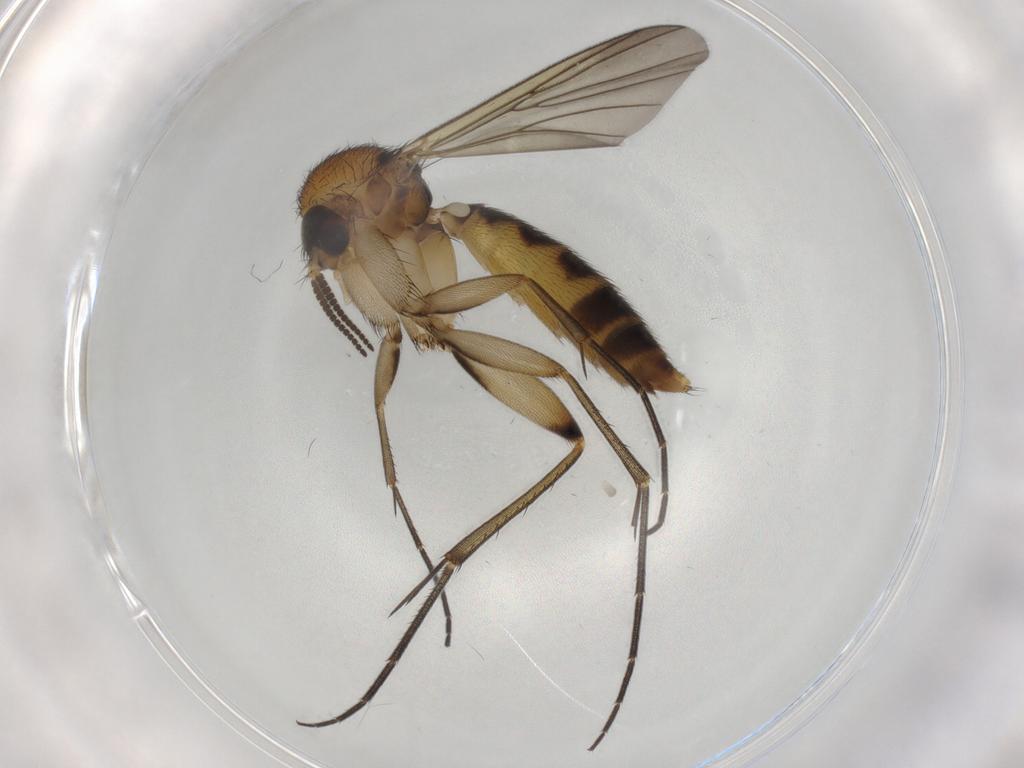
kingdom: Animalia
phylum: Arthropoda
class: Insecta
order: Diptera
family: Mycetophilidae
